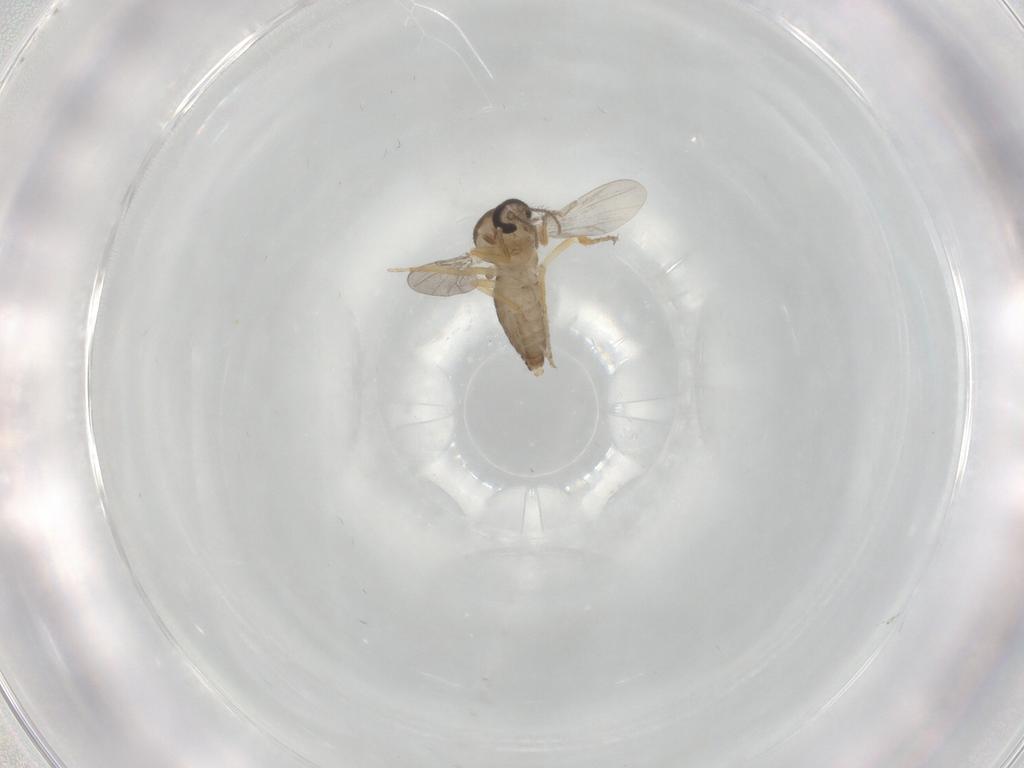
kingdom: Animalia
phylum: Arthropoda
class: Insecta
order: Diptera
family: Ceratopogonidae
